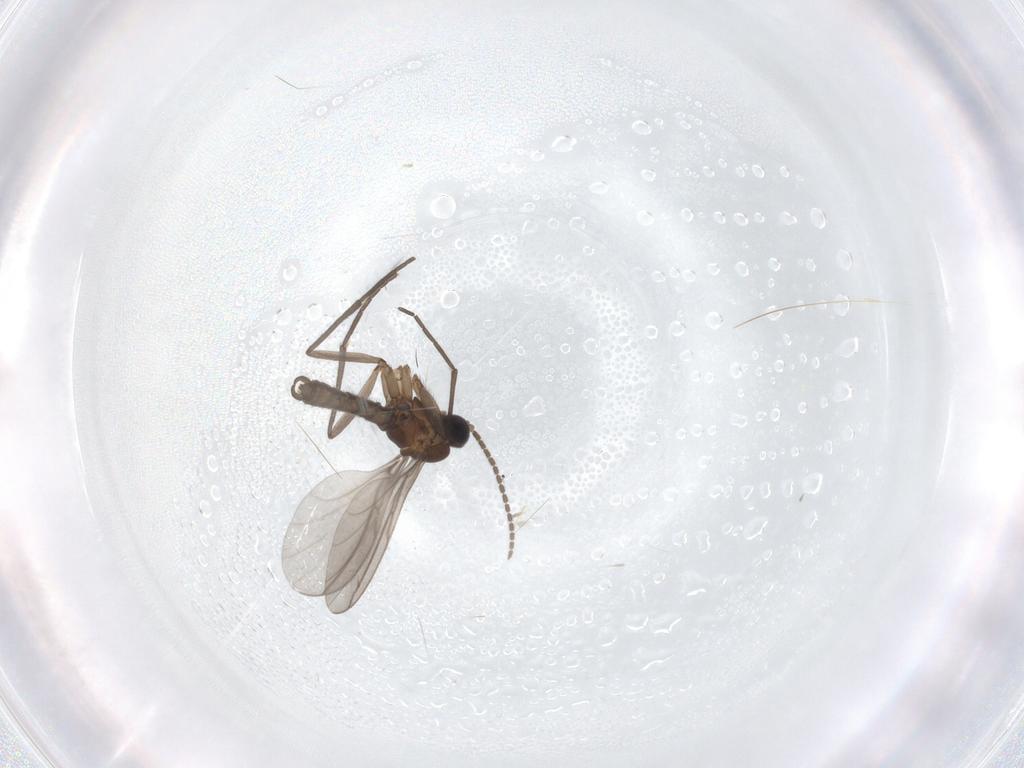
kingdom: Animalia
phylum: Arthropoda
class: Insecta
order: Diptera
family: Sciaridae
